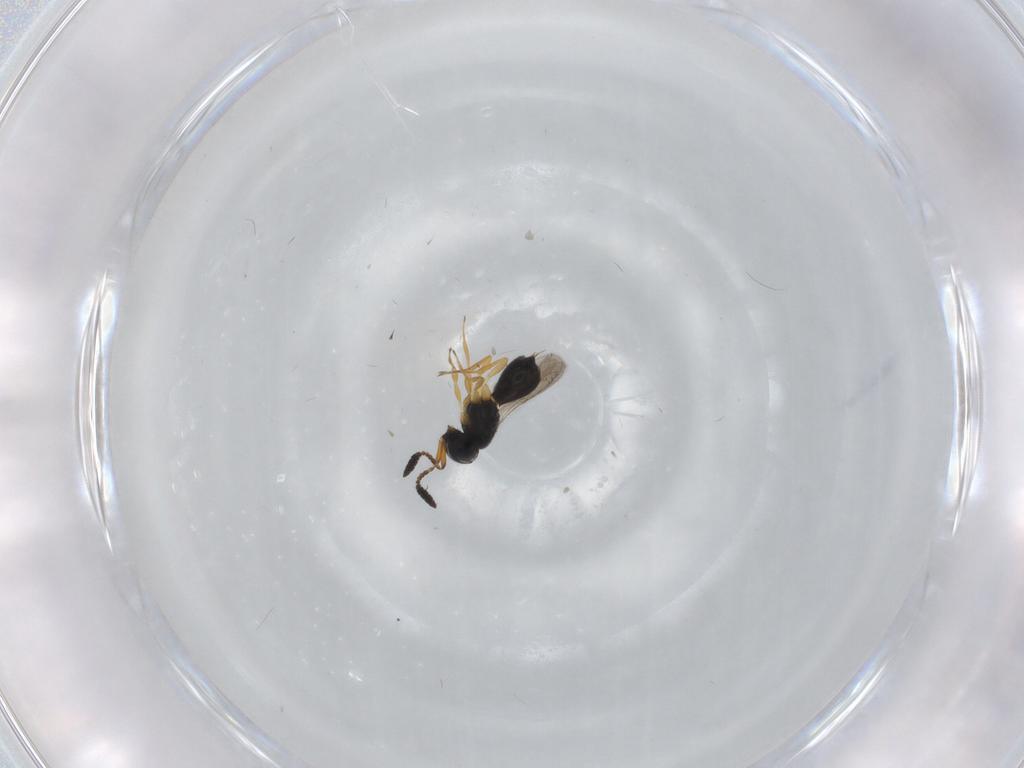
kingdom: Animalia
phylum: Arthropoda
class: Insecta
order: Hymenoptera
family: Scelionidae
